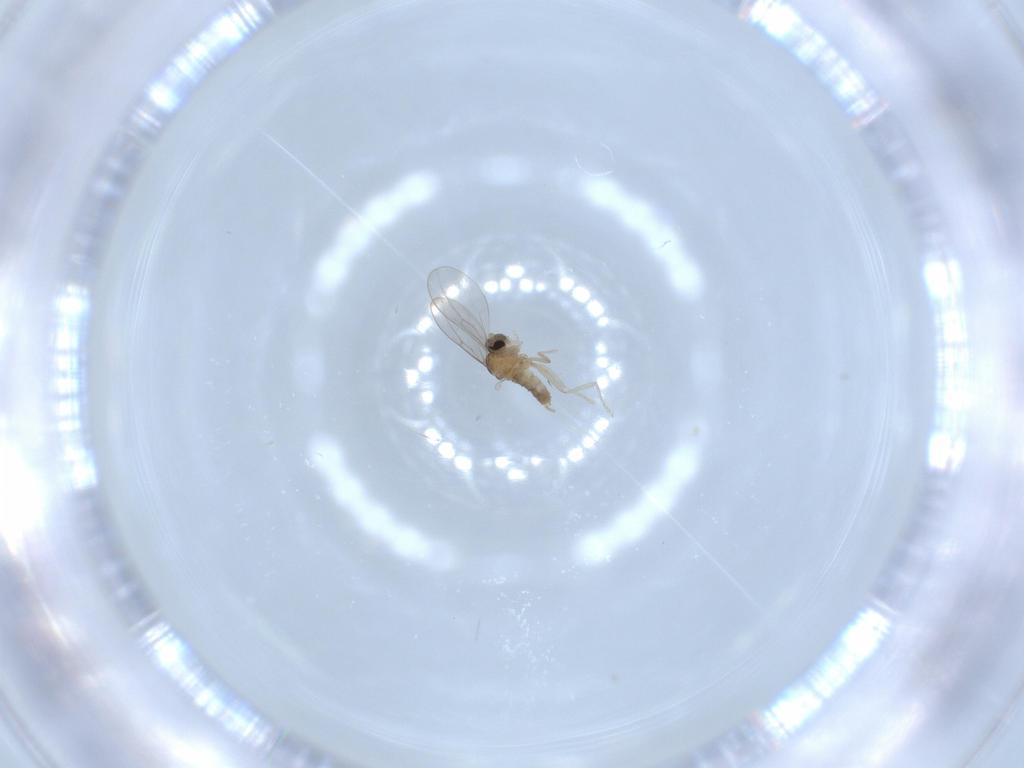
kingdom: Animalia
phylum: Arthropoda
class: Insecta
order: Diptera
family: Cecidomyiidae
